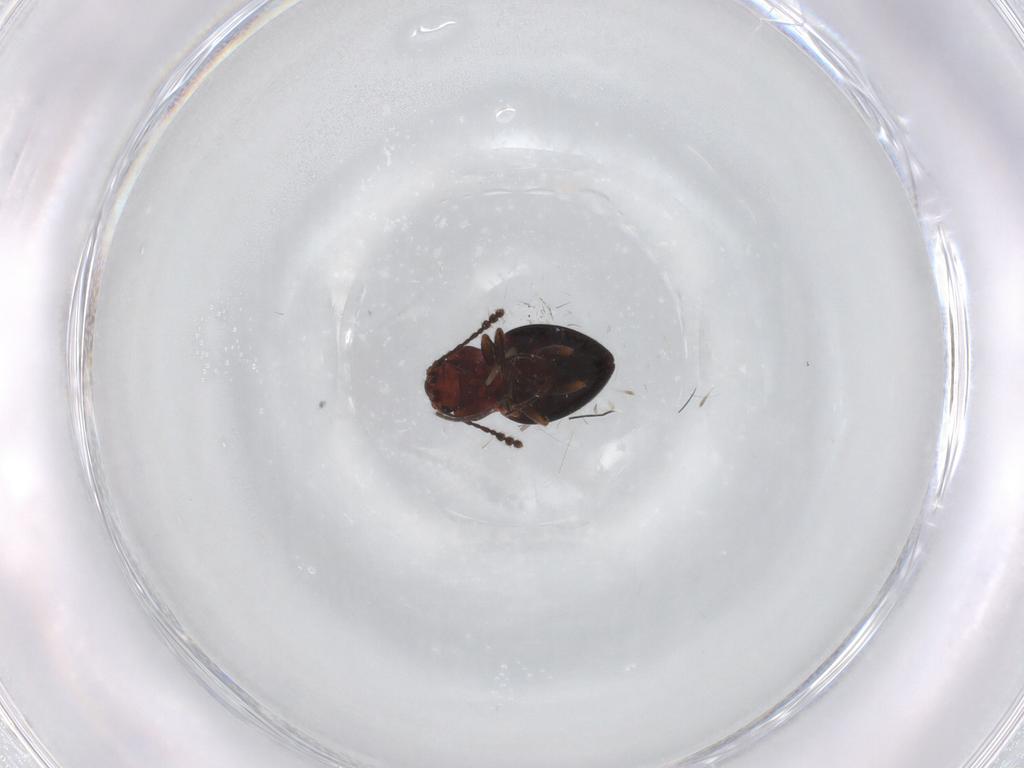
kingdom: Animalia
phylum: Arthropoda
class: Insecta
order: Coleoptera
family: Erotylidae
